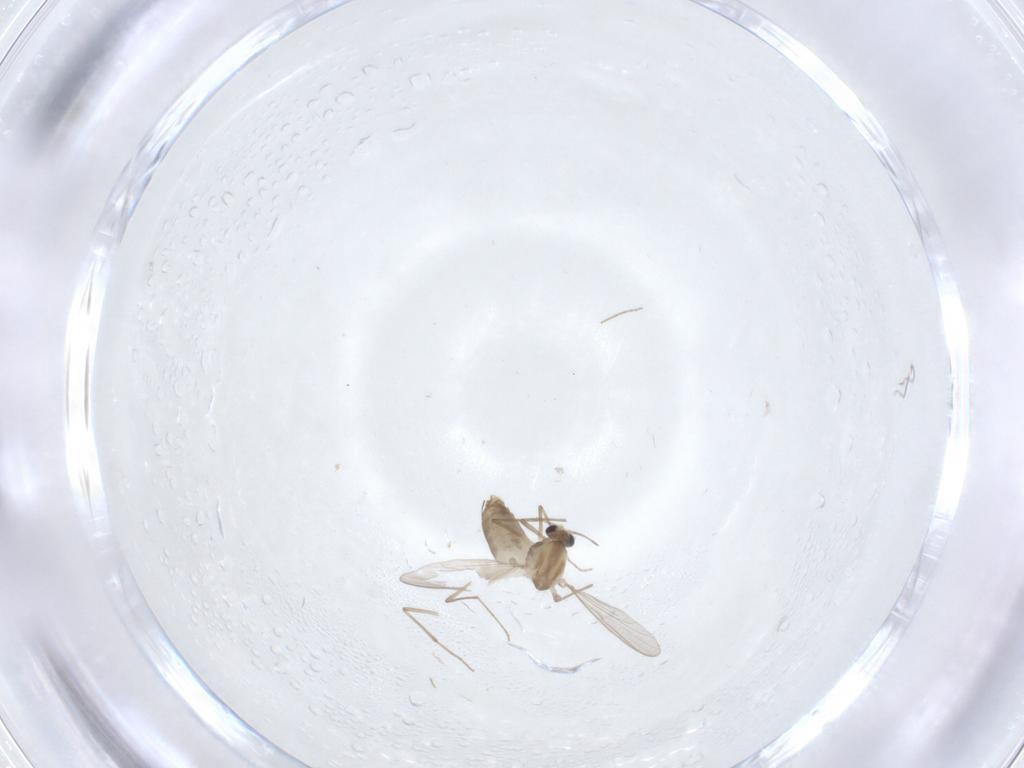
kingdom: Animalia
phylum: Arthropoda
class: Insecta
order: Diptera
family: Chironomidae
